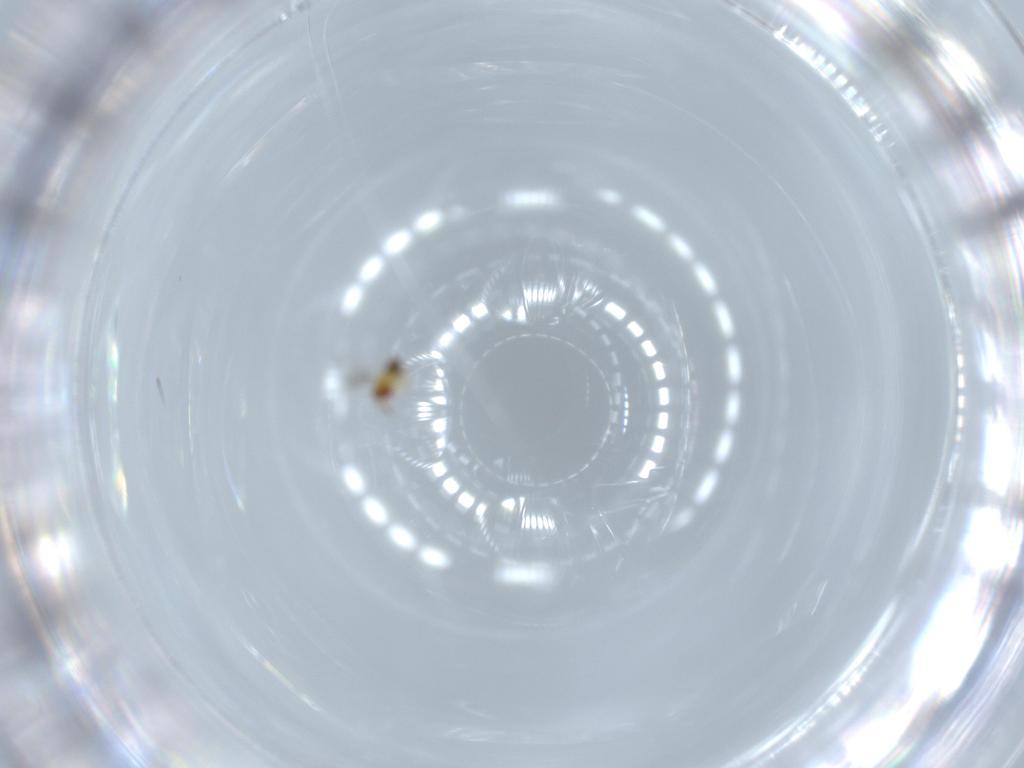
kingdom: Animalia
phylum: Arthropoda
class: Insecta
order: Hymenoptera
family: Trichogrammatidae
